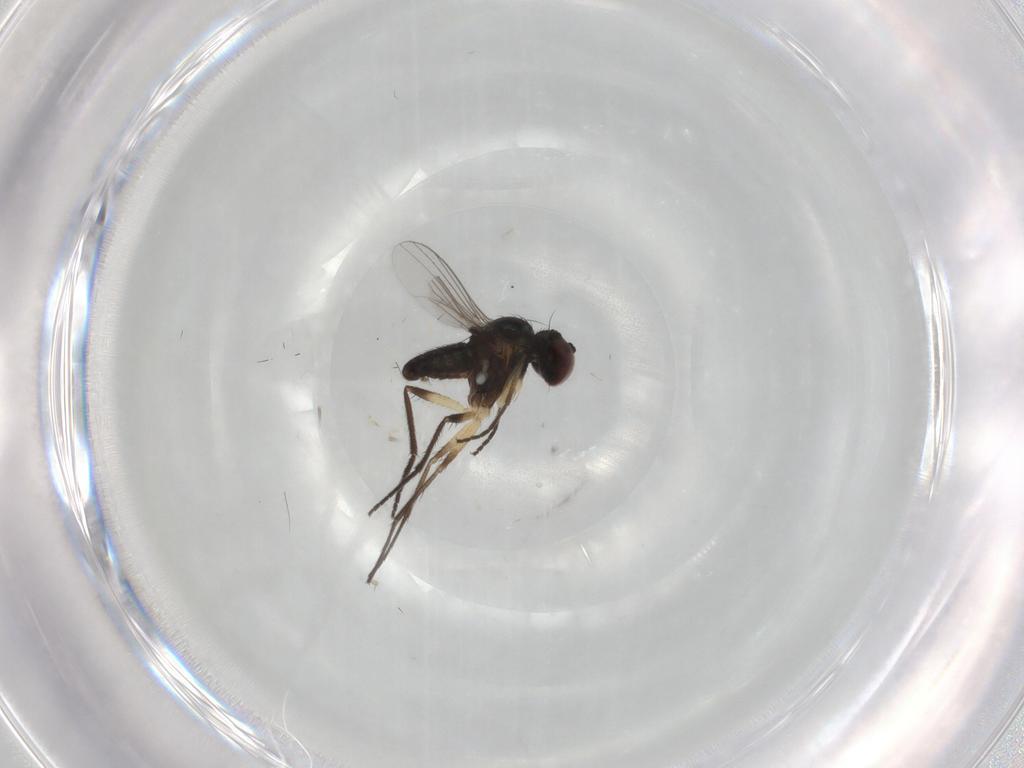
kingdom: Animalia
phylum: Arthropoda
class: Insecta
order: Diptera
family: Dolichopodidae
